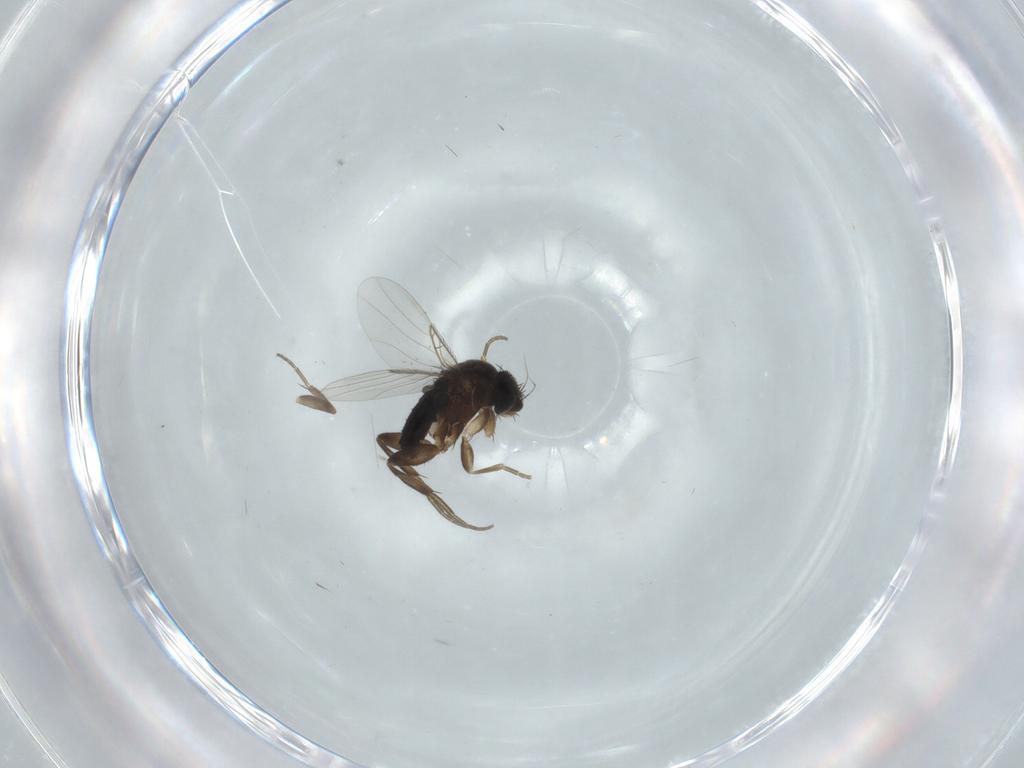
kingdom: Animalia
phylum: Arthropoda
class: Insecta
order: Diptera
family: Phoridae
